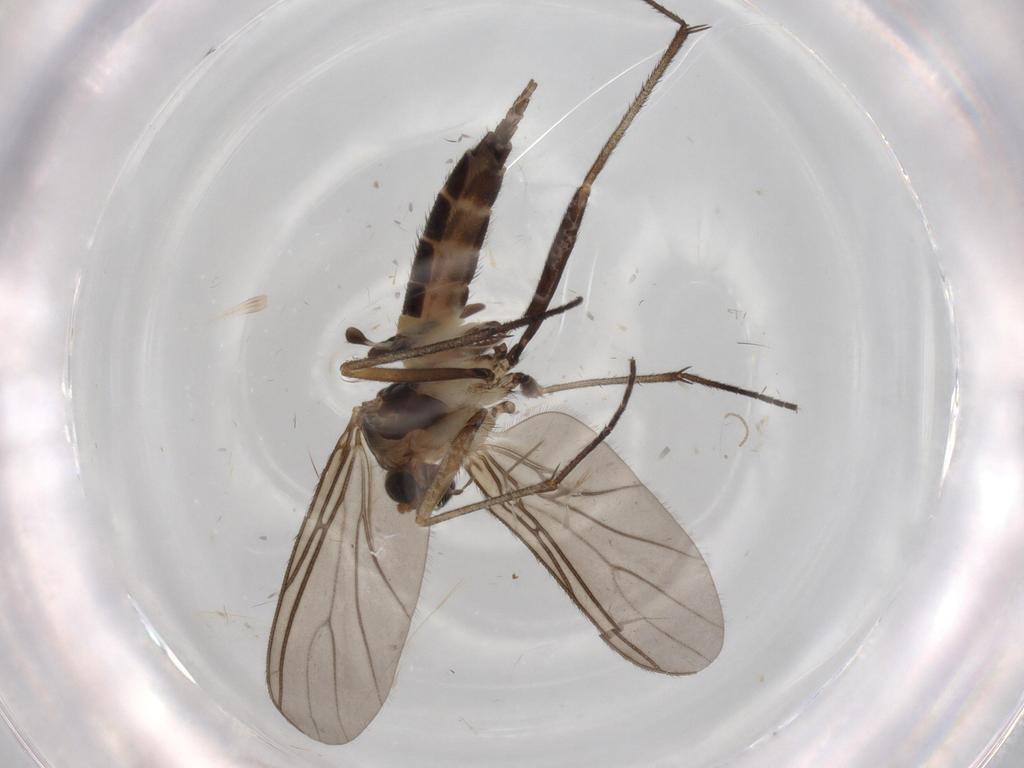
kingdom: Animalia
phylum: Arthropoda
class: Insecta
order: Diptera
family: Sciaridae
